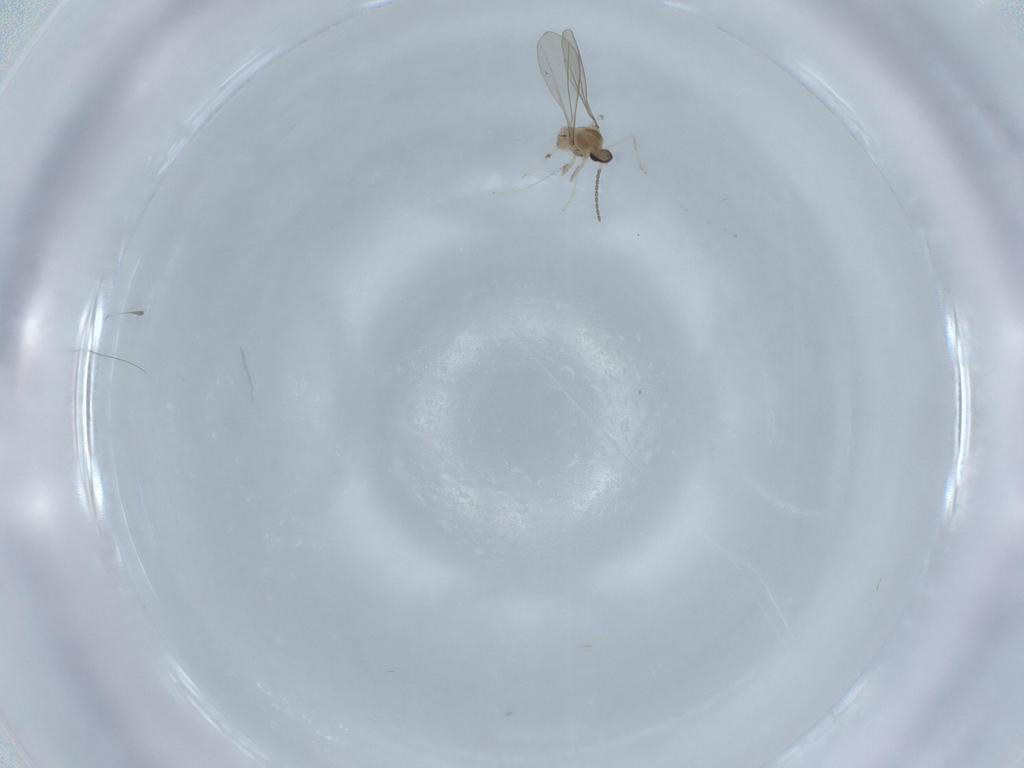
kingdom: Animalia
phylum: Arthropoda
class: Insecta
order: Diptera
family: Cecidomyiidae
